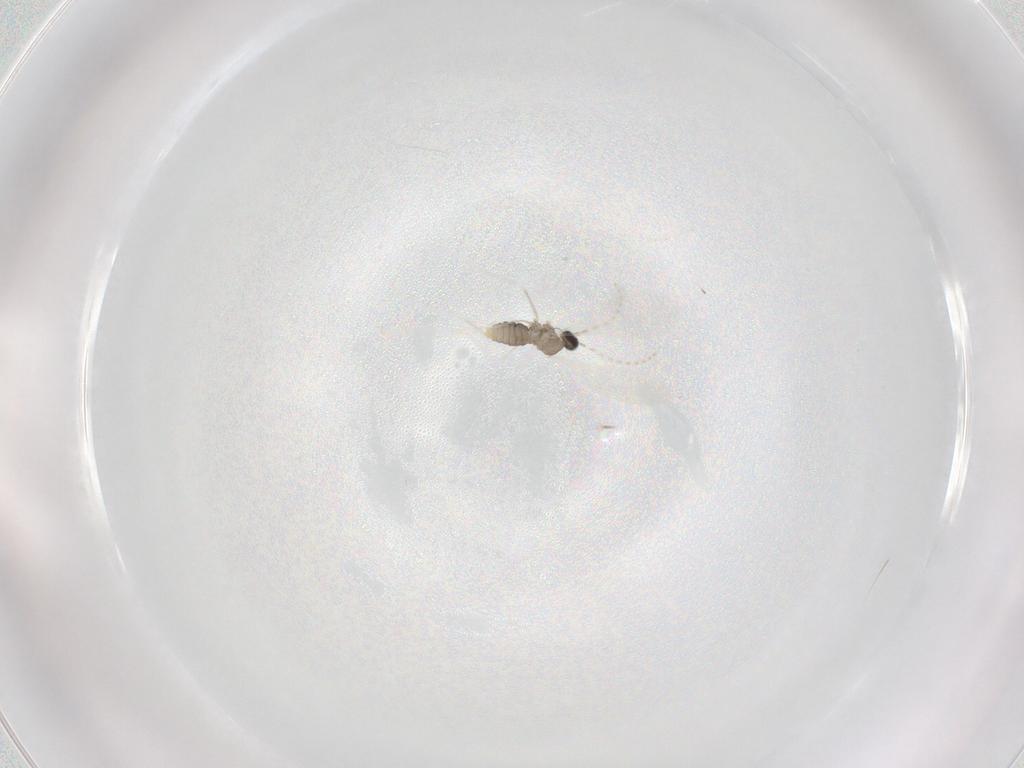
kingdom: Animalia
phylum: Arthropoda
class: Insecta
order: Diptera
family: Cecidomyiidae
